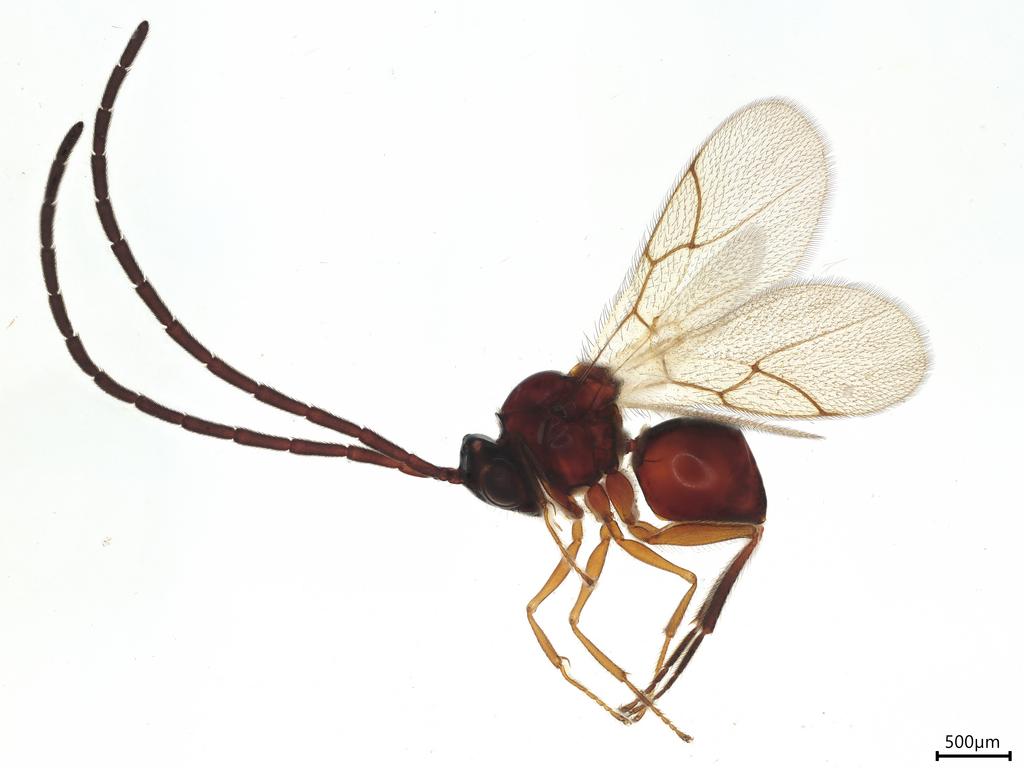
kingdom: Animalia
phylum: Arthropoda
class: Insecta
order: Hymenoptera
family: Figitidae
